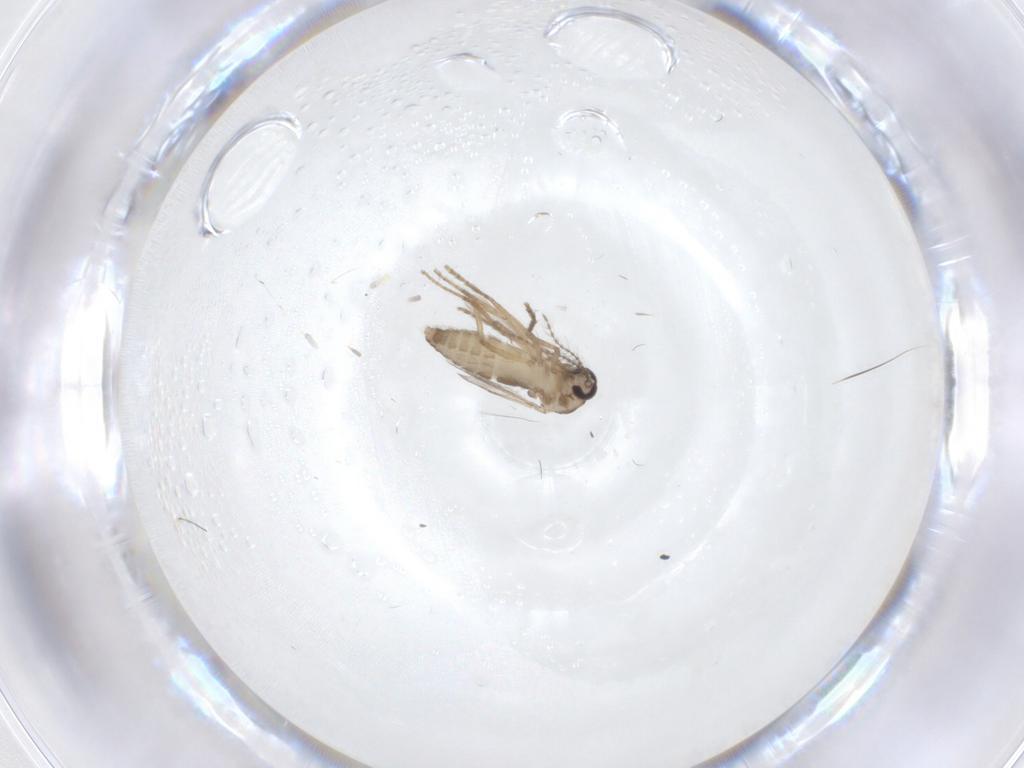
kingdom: Animalia
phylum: Arthropoda
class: Insecta
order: Diptera
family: Ceratopogonidae
